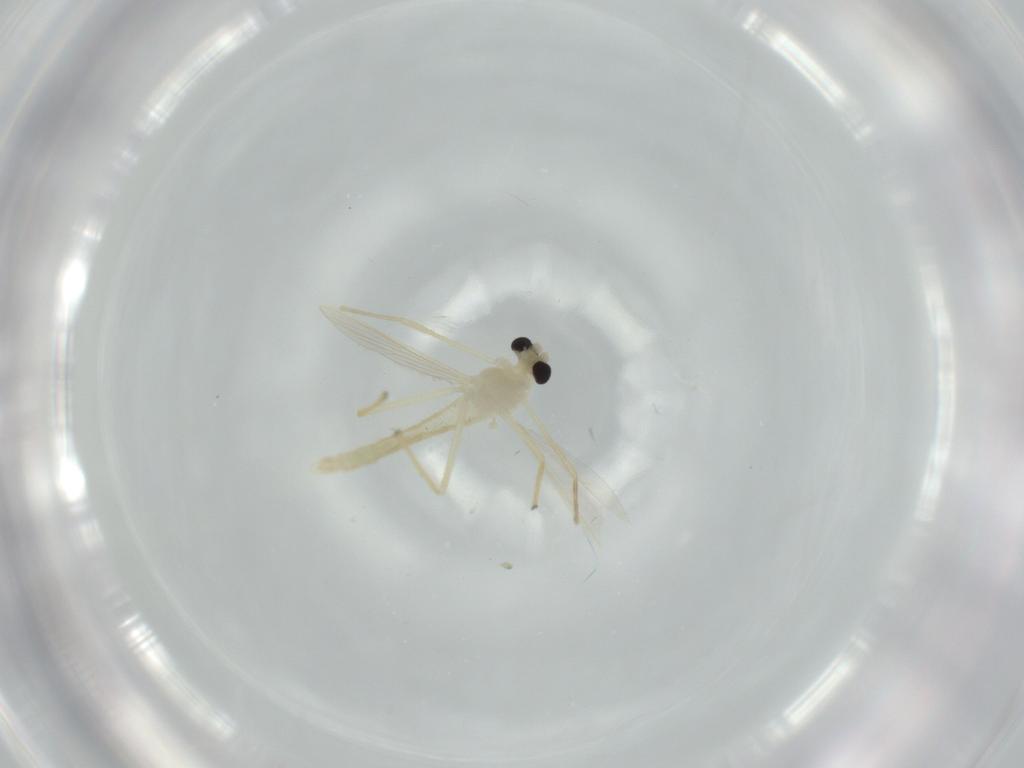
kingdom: Animalia
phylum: Arthropoda
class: Insecta
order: Diptera
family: Chironomidae
